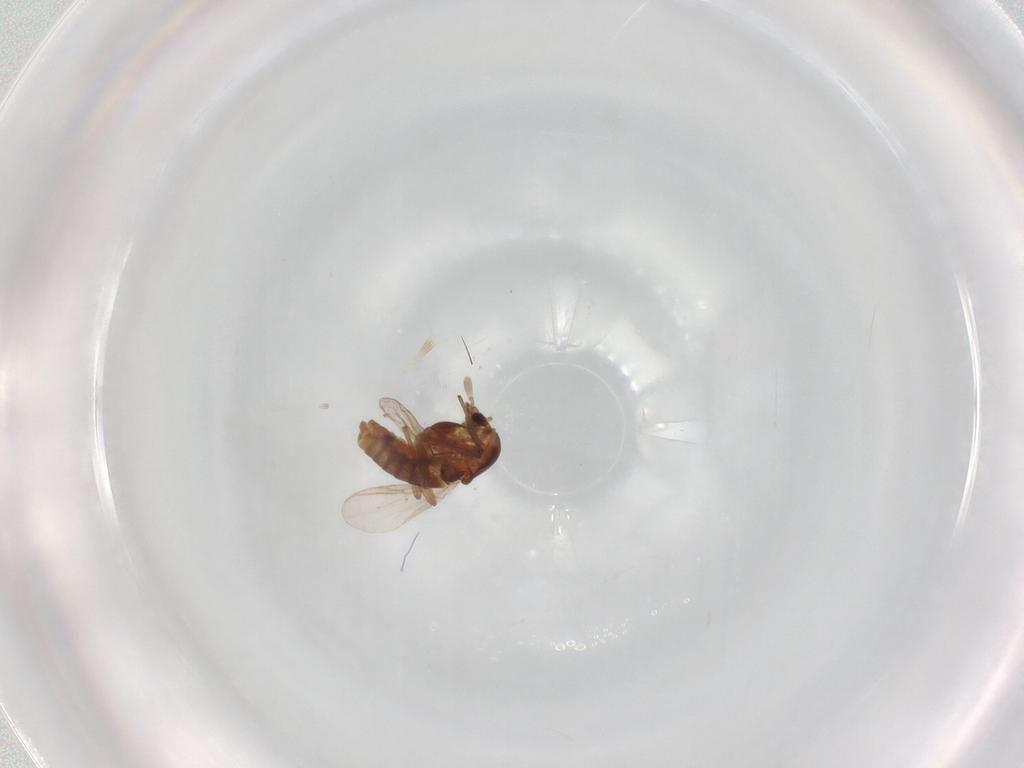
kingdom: Animalia
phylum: Arthropoda
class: Insecta
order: Diptera
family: Chironomidae
